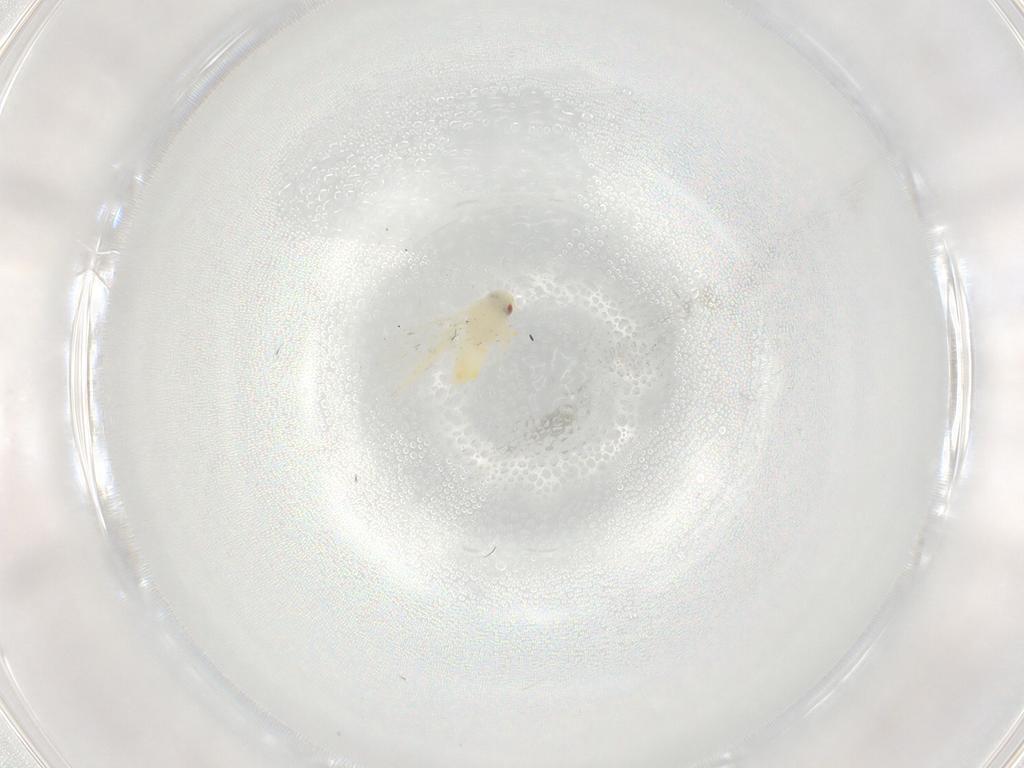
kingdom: Animalia
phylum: Arthropoda
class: Insecta
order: Hemiptera
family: Aleyrodidae
